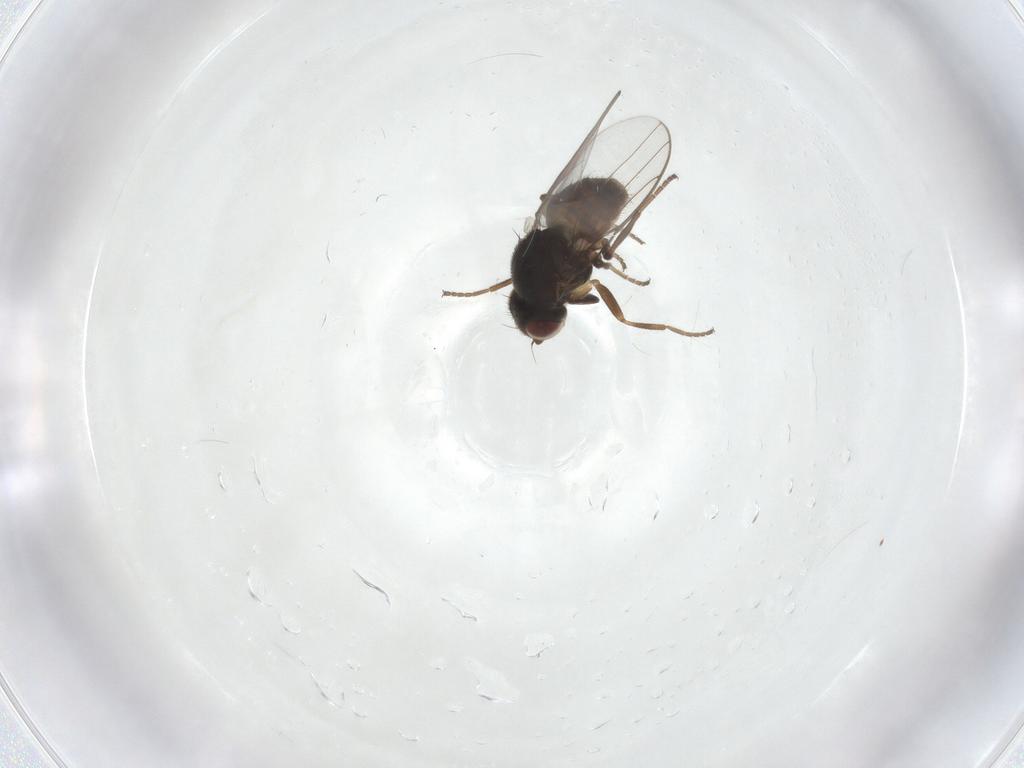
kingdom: Animalia
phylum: Arthropoda
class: Insecta
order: Diptera
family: Chloropidae
